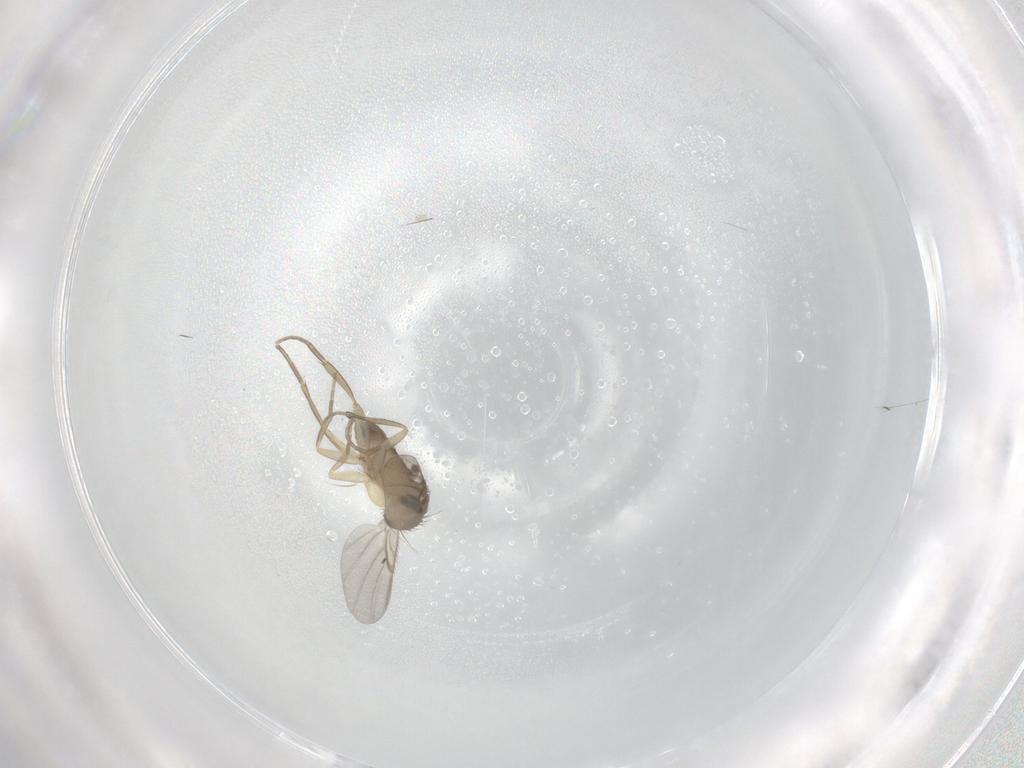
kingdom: Animalia
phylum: Arthropoda
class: Insecta
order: Diptera
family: Phoridae
